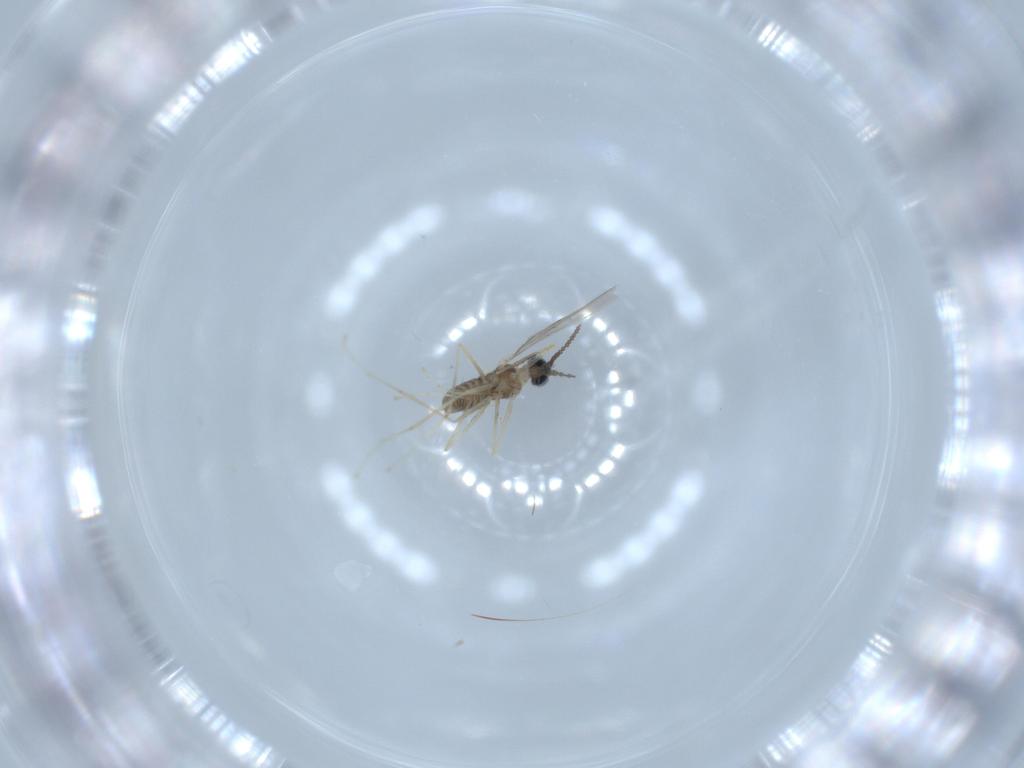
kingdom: Animalia
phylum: Arthropoda
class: Insecta
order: Diptera
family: Cecidomyiidae
